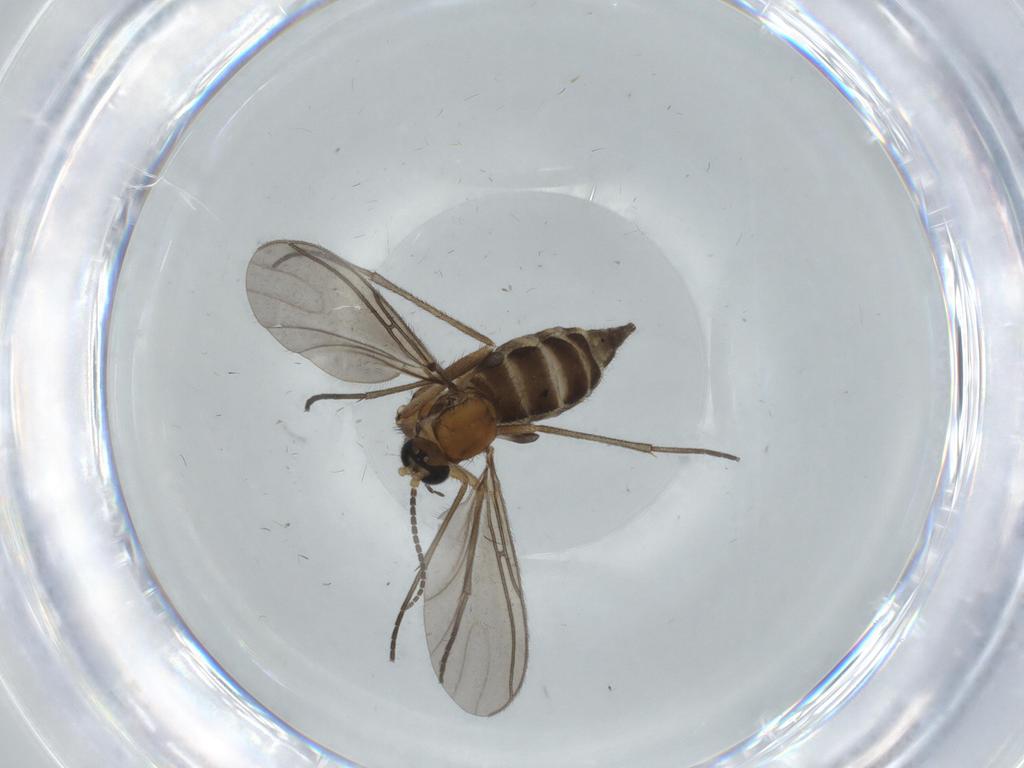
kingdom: Animalia
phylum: Arthropoda
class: Insecta
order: Diptera
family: Sciaridae
